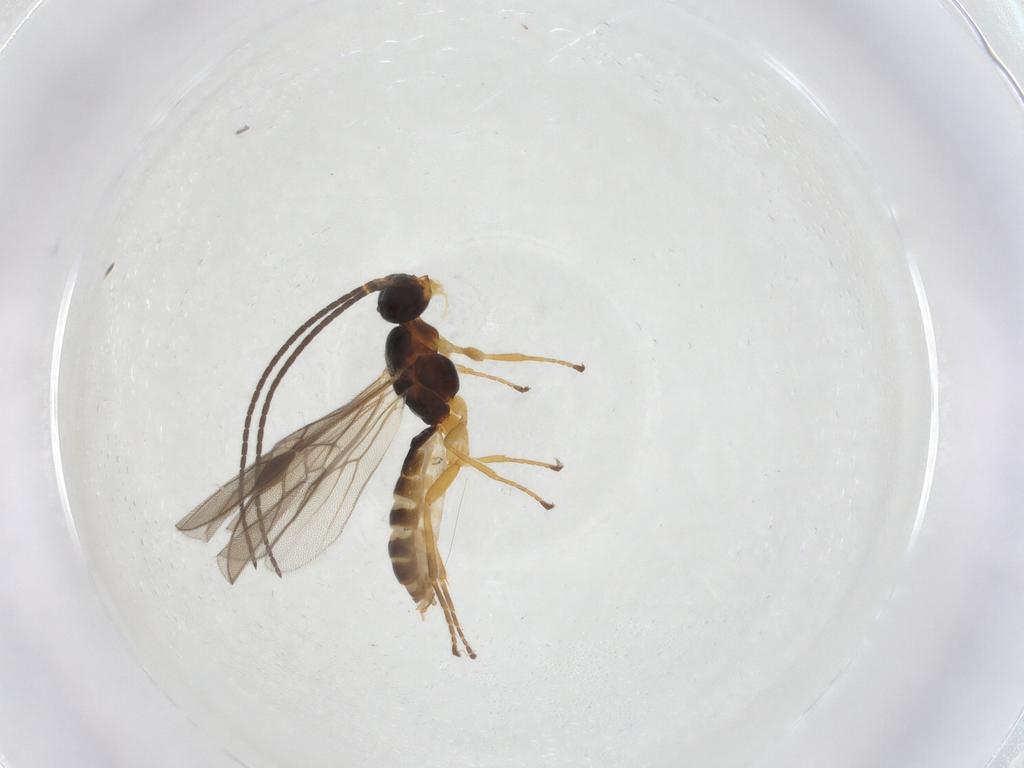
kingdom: Animalia
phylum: Arthropoda
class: Insecta
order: Hymenoptera
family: Braconidae
